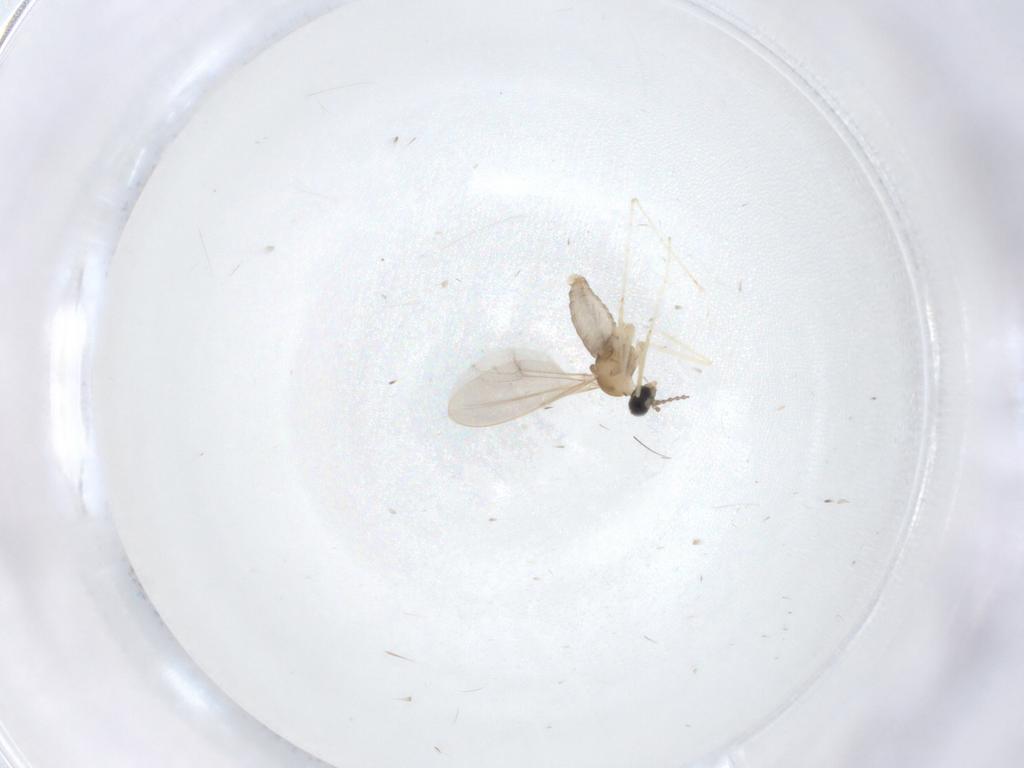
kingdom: Animalia
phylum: Arthropoda
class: Insecta
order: Diptera
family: Cecidomyiidae
